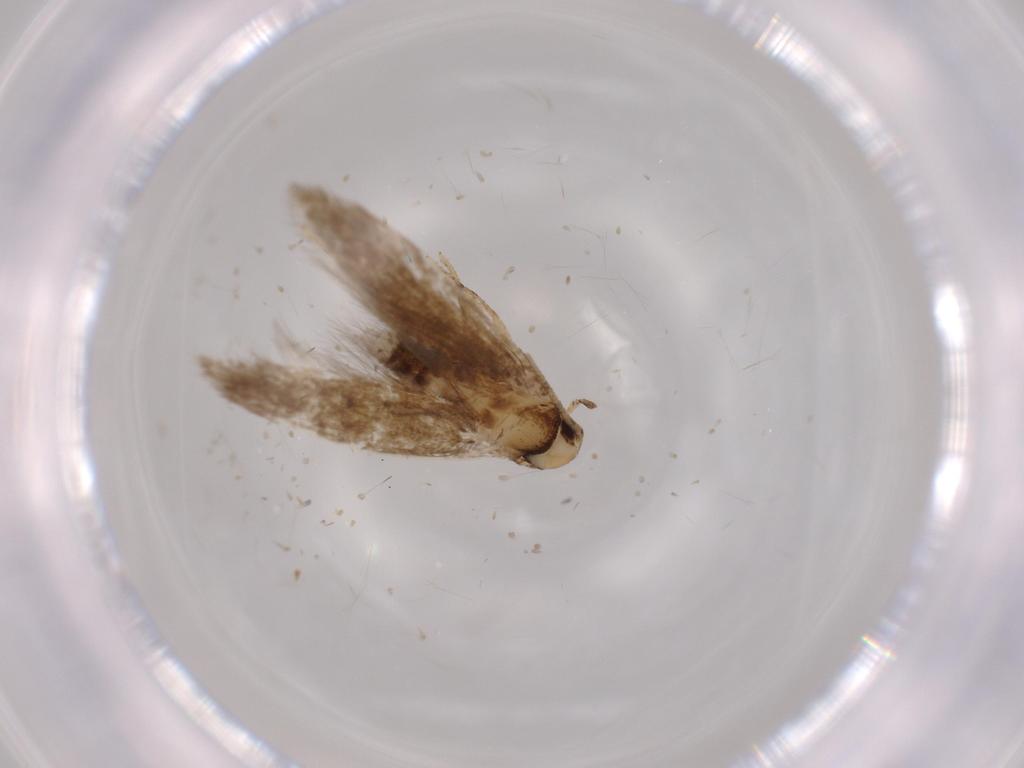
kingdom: Animalia
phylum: Arthropoda
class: Insecta
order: Lepidoptera
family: Tineidae
